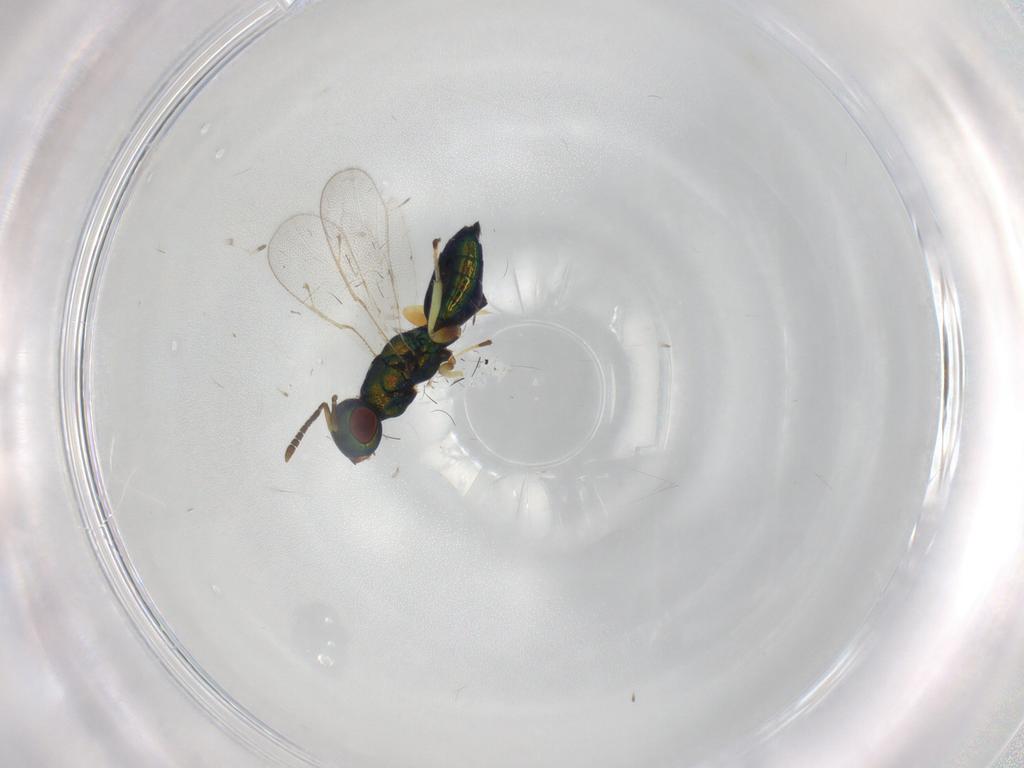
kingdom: Animalia
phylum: Arthropoda
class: Insecta
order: Hymenoptera
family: Pteromalidae
